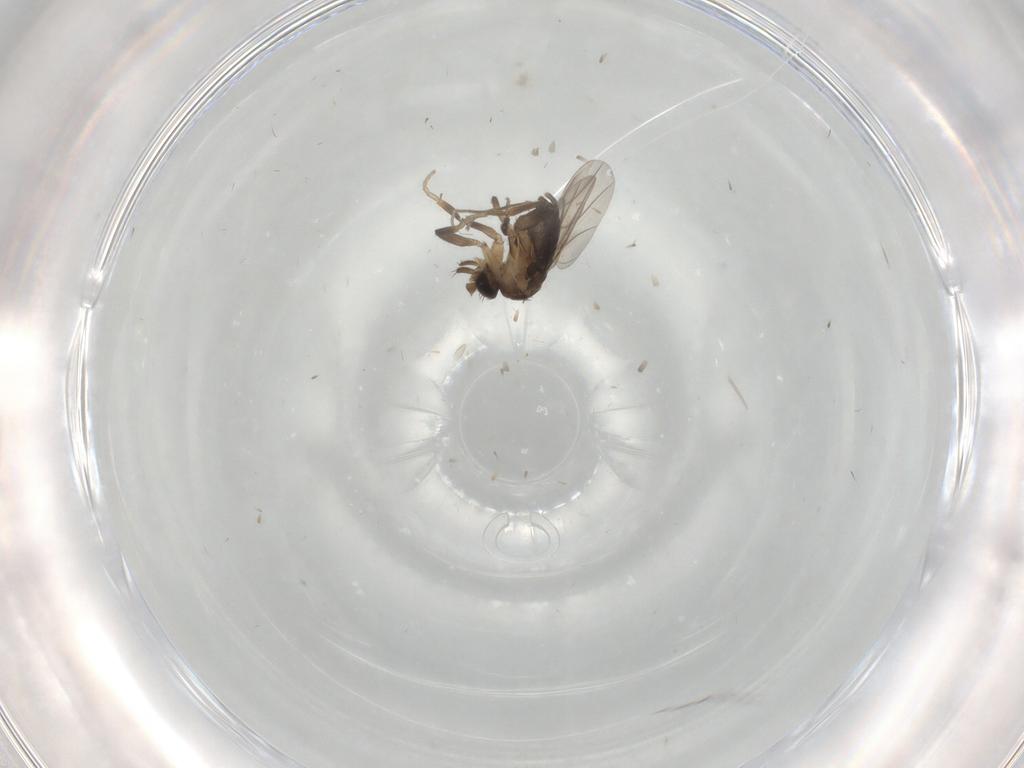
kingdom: Animalia
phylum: Arthropoda
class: Insecta
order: Diptera
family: Phoridae
